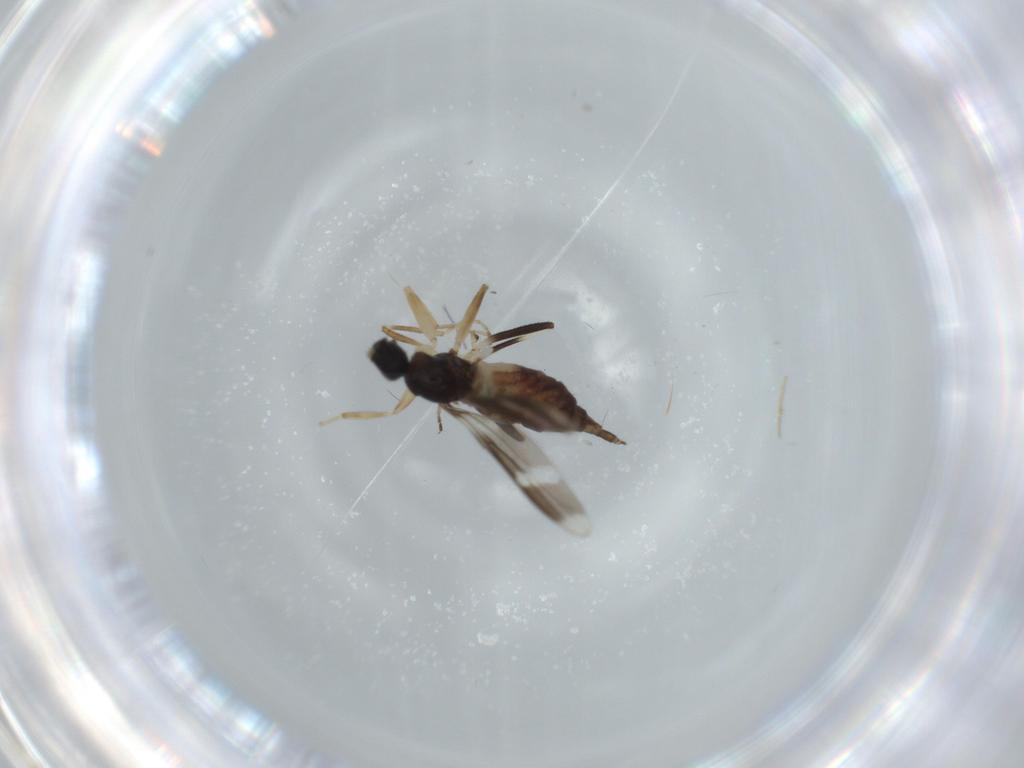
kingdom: Animalia
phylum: Arthropoda
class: Insecta
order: Diptera
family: Hybotidae
